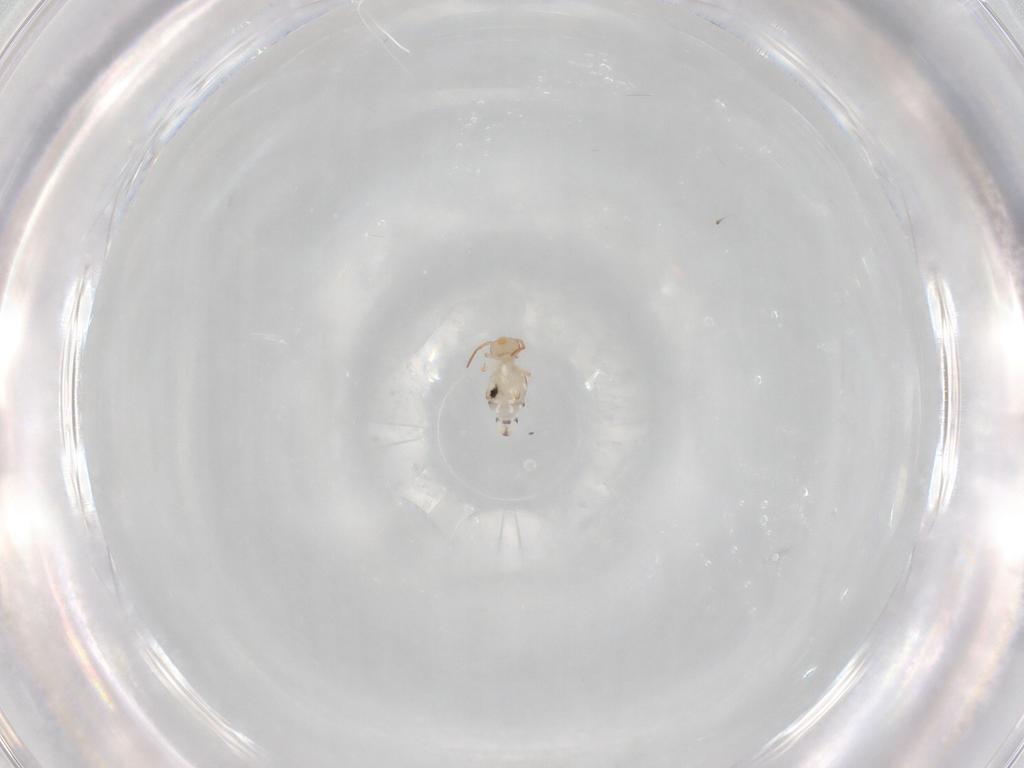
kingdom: Animalia
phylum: Arthropoda
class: Collembola
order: Symphypleona
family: Bourletiellidae
